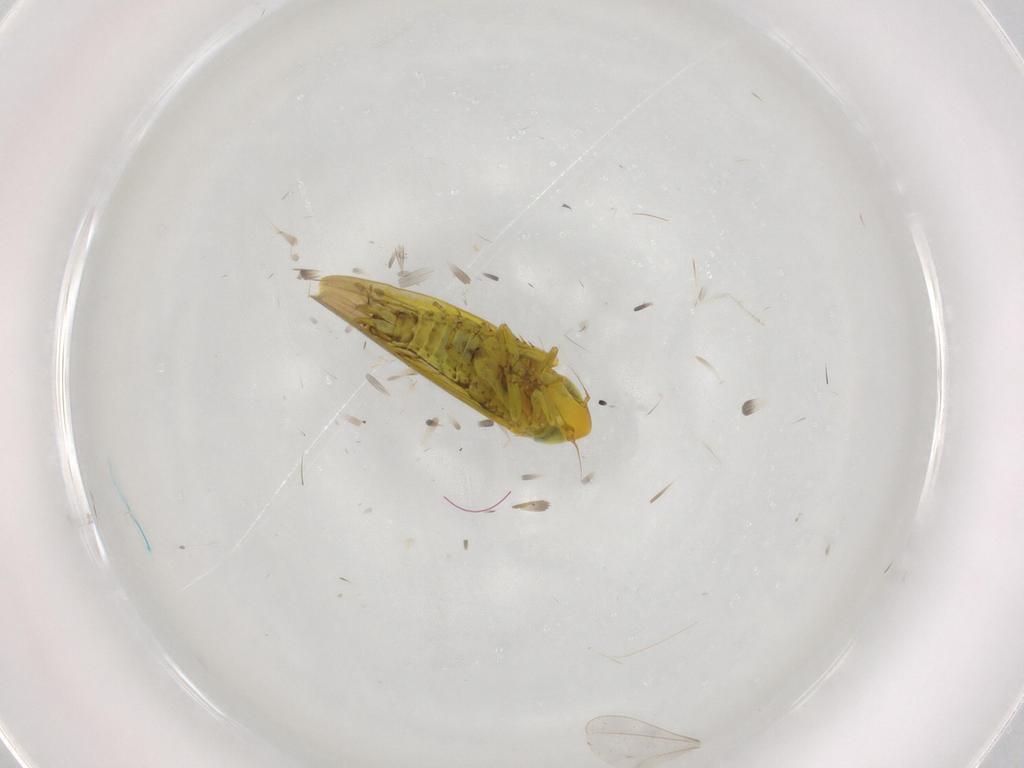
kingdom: Animalia
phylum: Arthropoda
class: Insecta
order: Hemiptera
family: Cicadellidae
